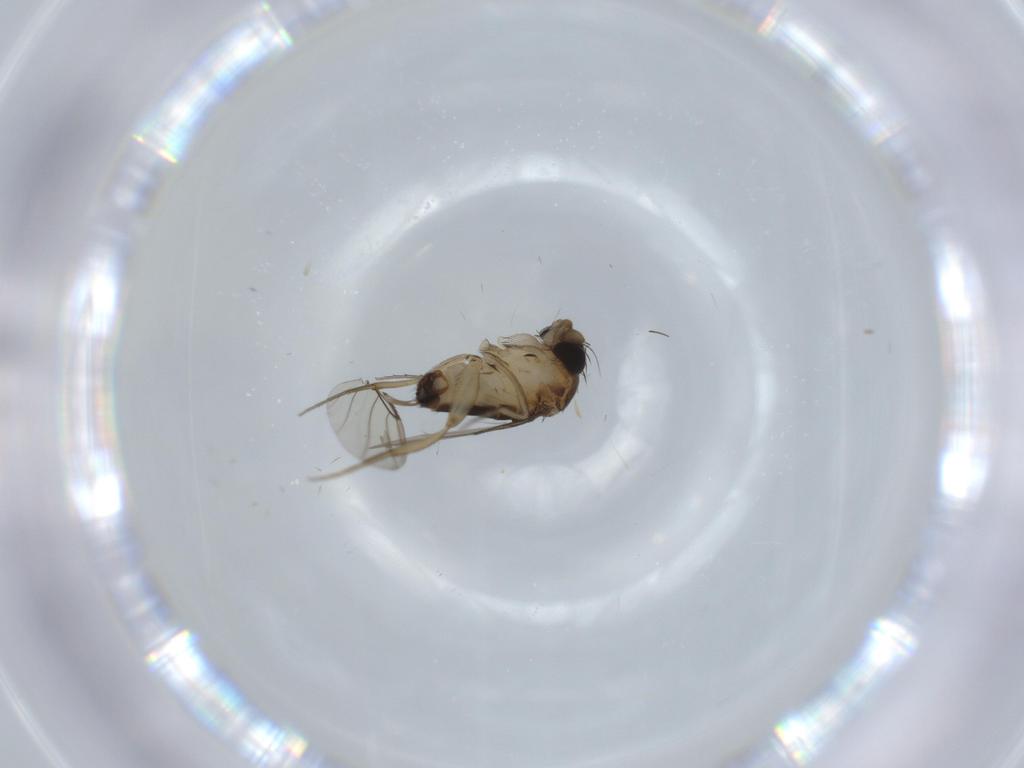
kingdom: Animalia
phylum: Arthropoda
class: Insecta
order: Diptera
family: Phoridae
